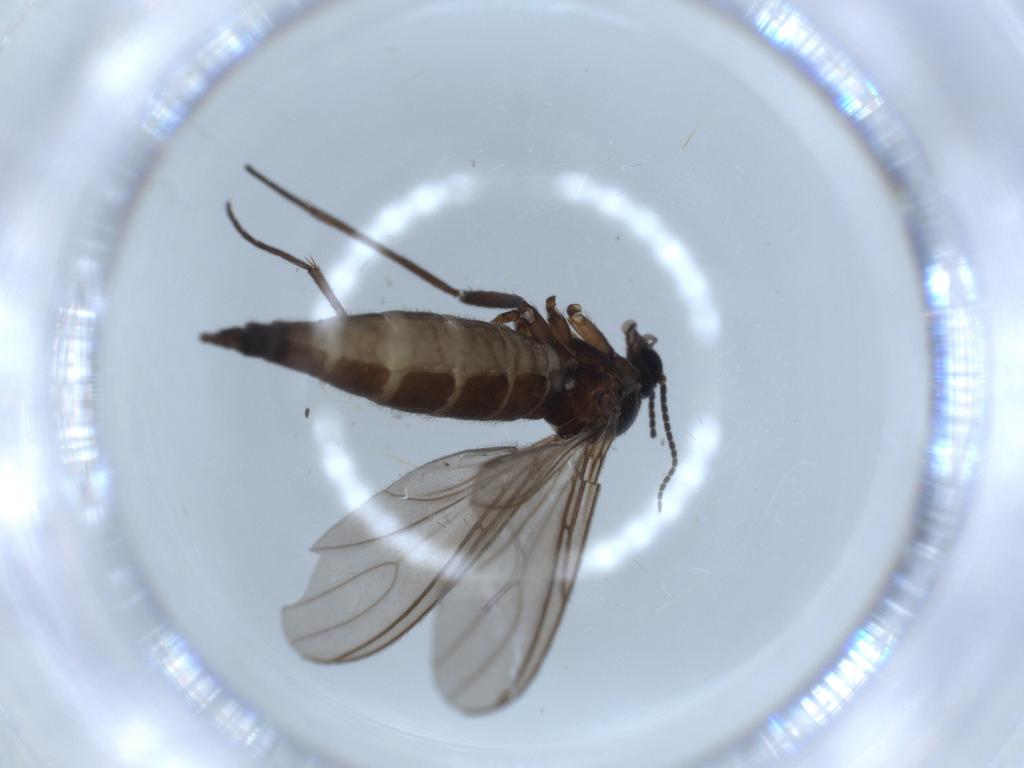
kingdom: Animalia
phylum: Arthropoda
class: Insecta
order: Diptera
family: Sciaridae
